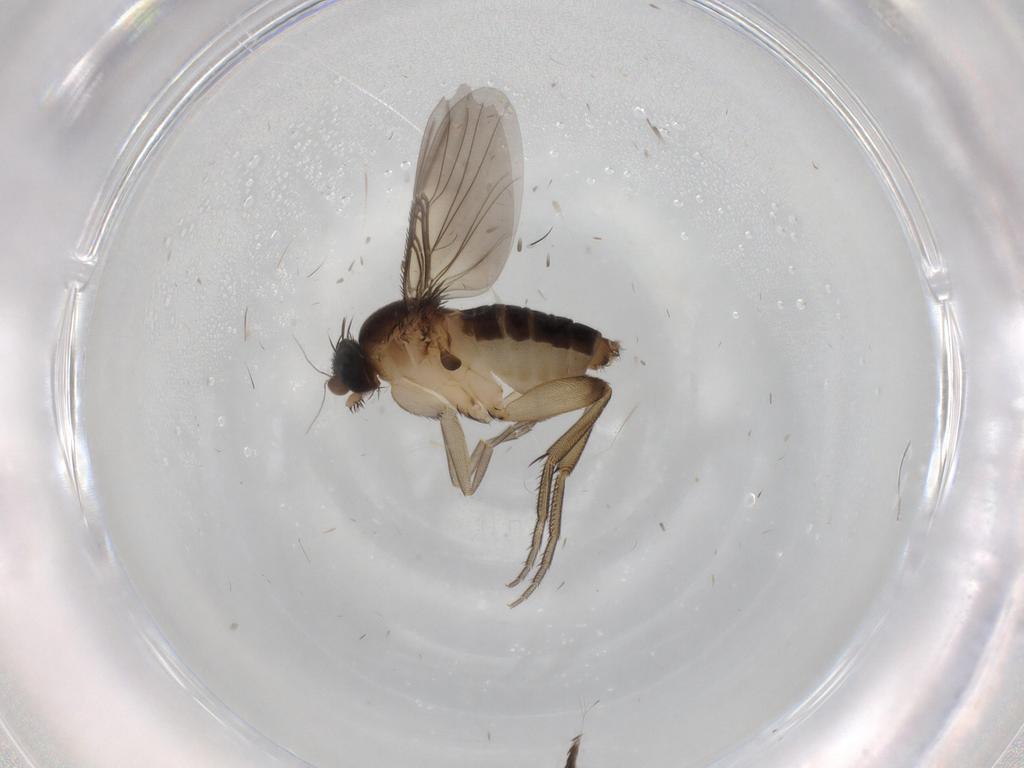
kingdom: Animalia
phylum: Arthropoda
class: Insecta
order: Diptera
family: Phoridae
